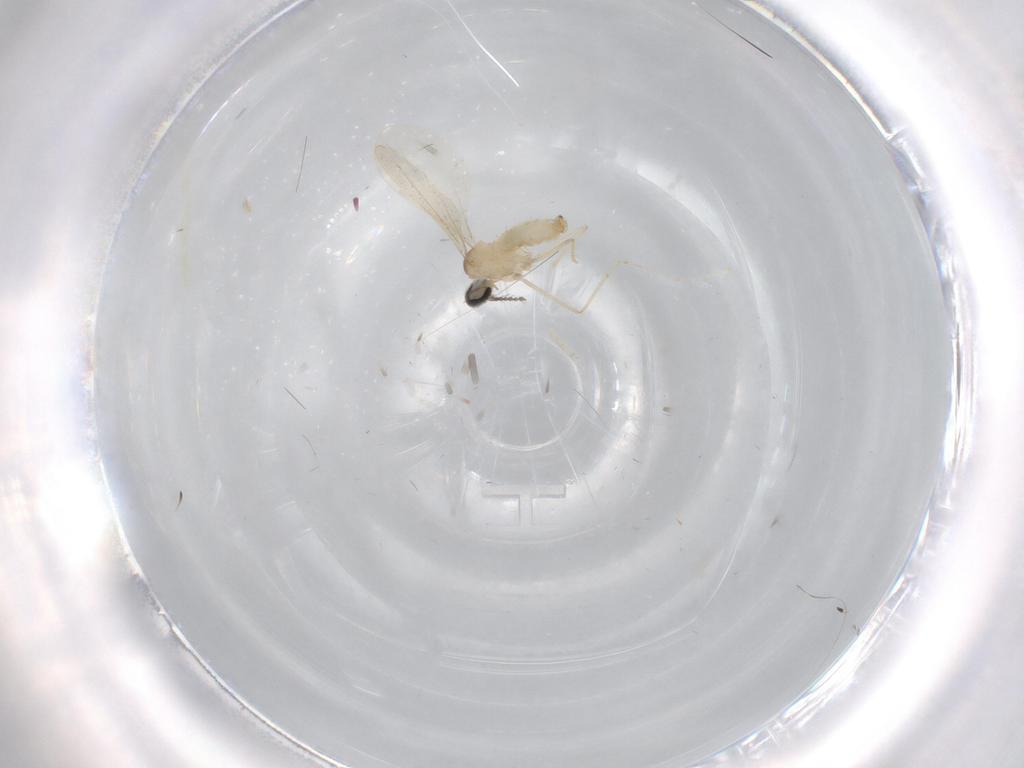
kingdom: Animalia
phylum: Arthropoda
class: Insecta
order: Diptera
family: Cecidomyiidae
